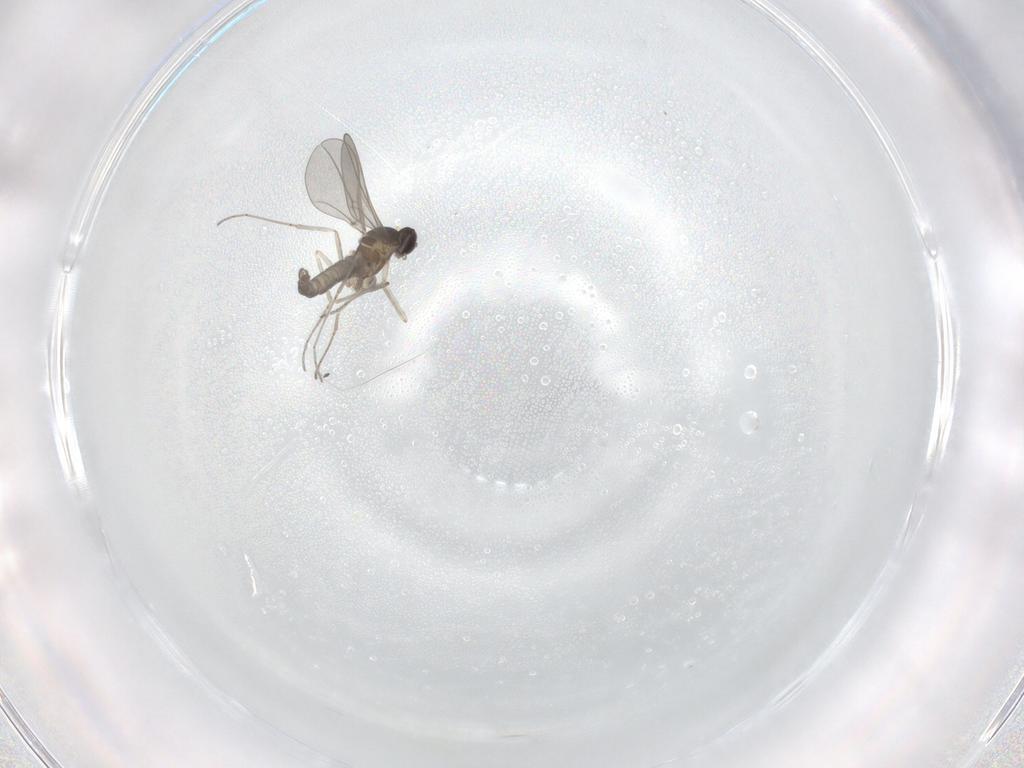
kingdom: Animalia
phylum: Arthropoda
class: Insecta
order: Diptera
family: Cecidomyiidae
